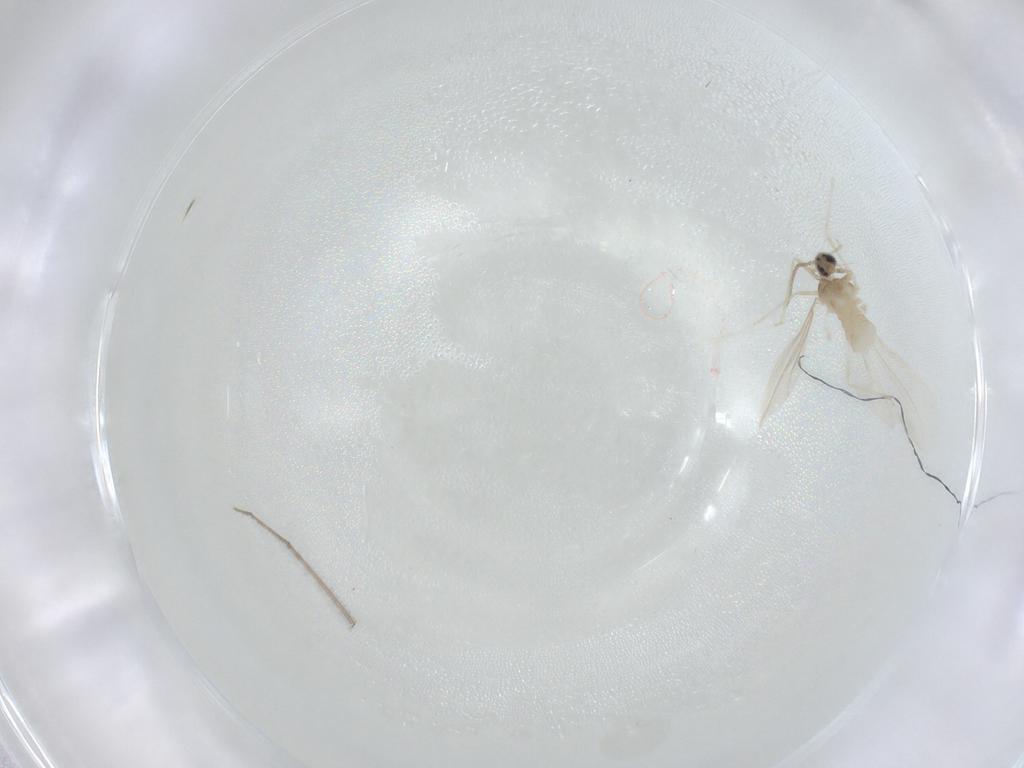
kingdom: Animalia
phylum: Arthropoda
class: Insecta
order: Diptera
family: Cecidomyiidae
